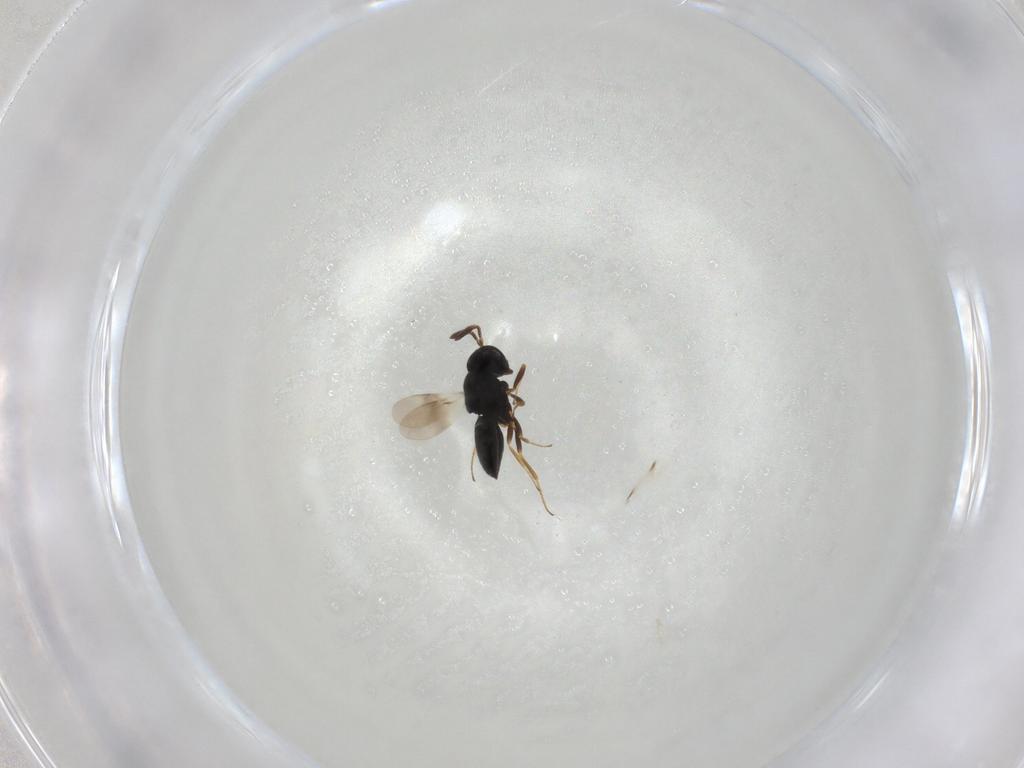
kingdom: Animalia
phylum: Arthropoda
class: Insecta
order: Hymenoptera
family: Scelionidae
